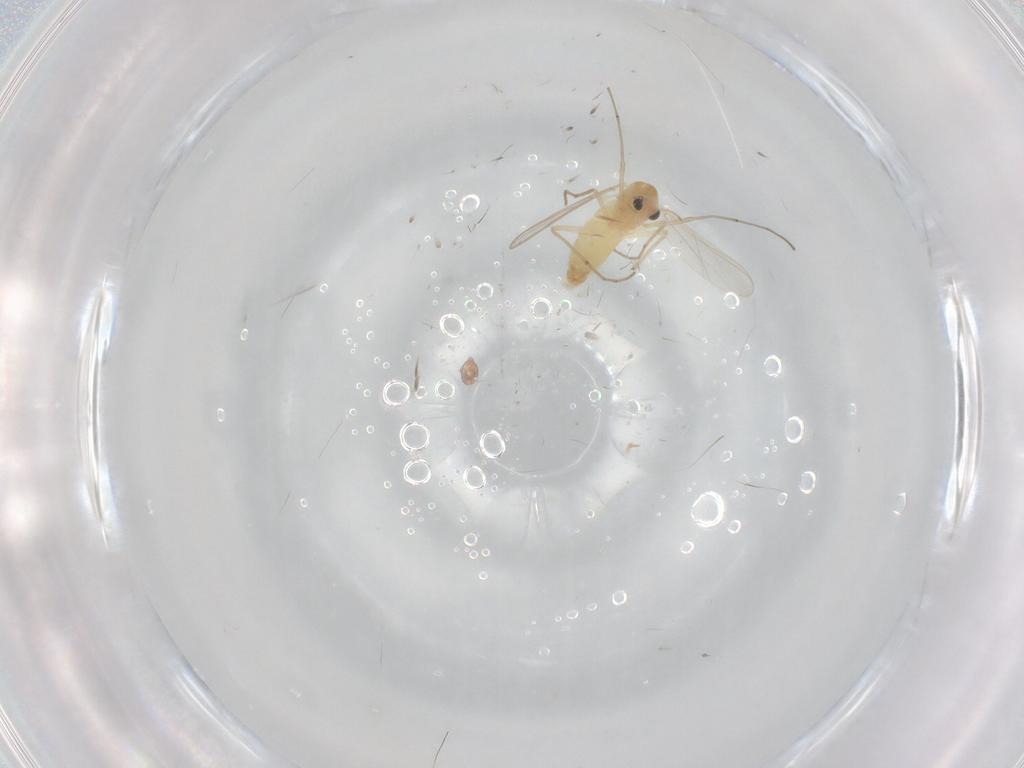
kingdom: Animalia
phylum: Arthropoda
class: Insecta
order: Diptera
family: Chironomidae
